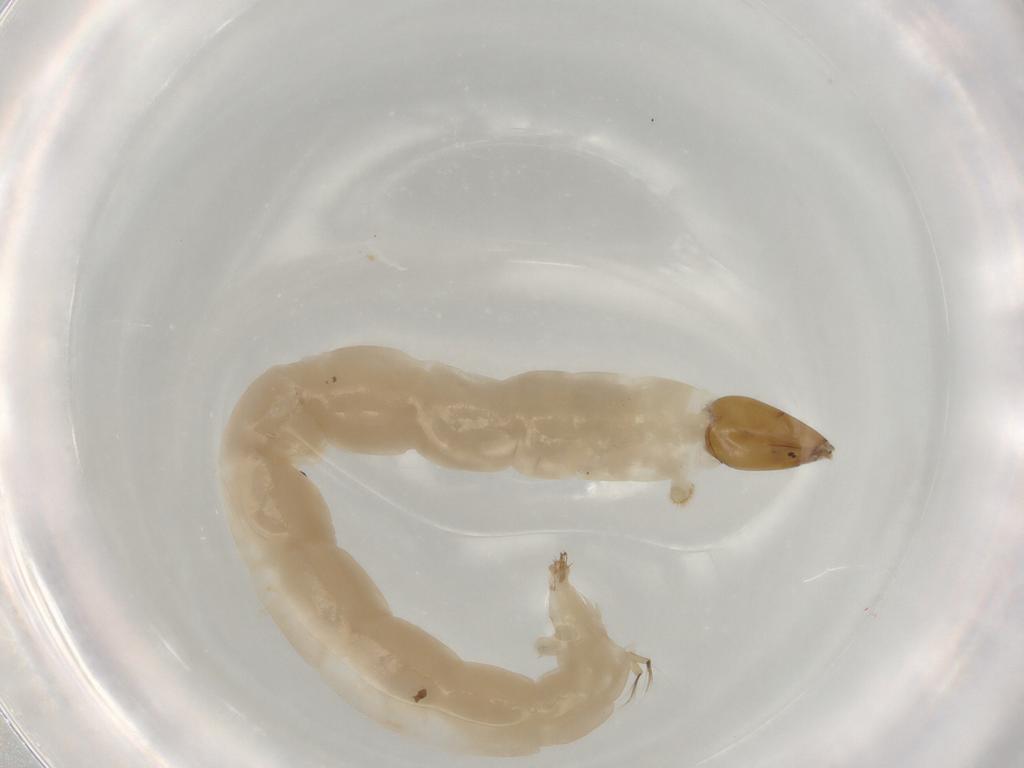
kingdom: Animalia
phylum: Arthropoda
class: Insecta
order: Diptera
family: Chironomidae
